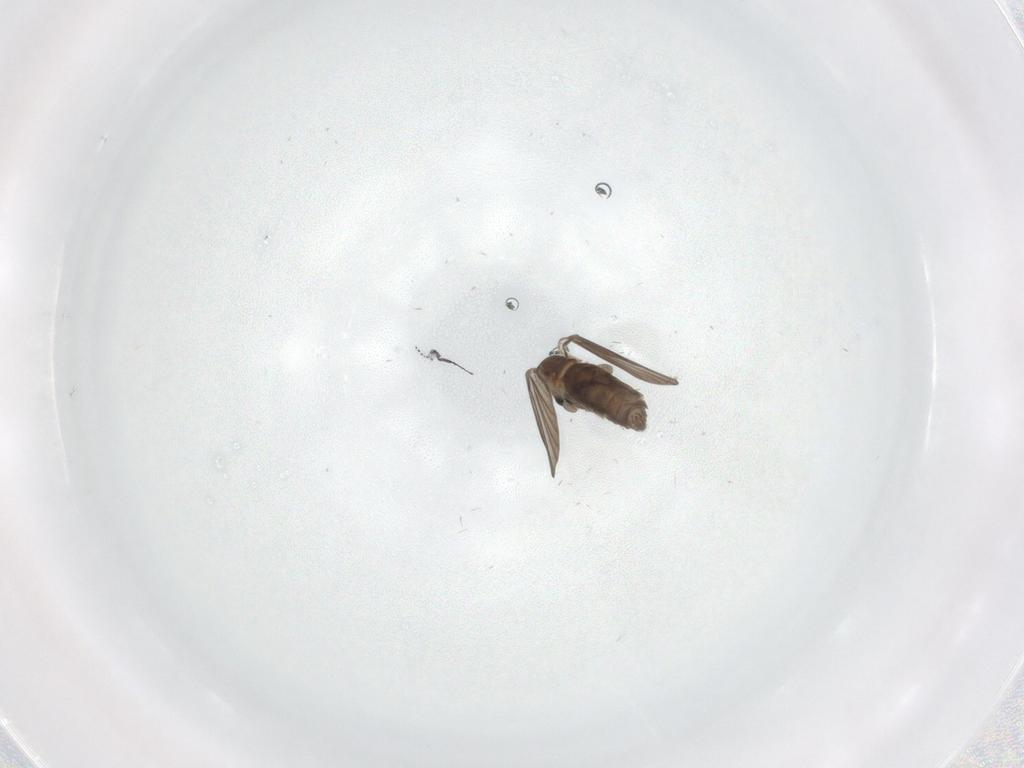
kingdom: Animalia
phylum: Arthropoda
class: Insecta
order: Diptera
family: Limoniidae
